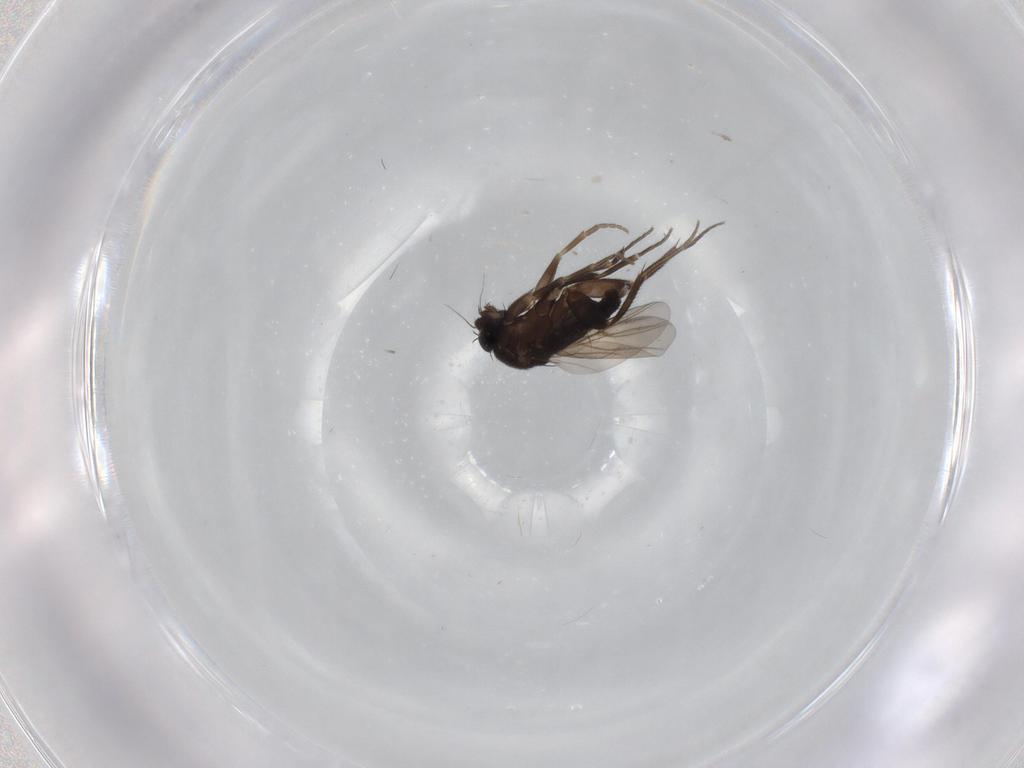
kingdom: Animalia
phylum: Arthropoda
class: Insecta
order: Diptera
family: Phoridae
